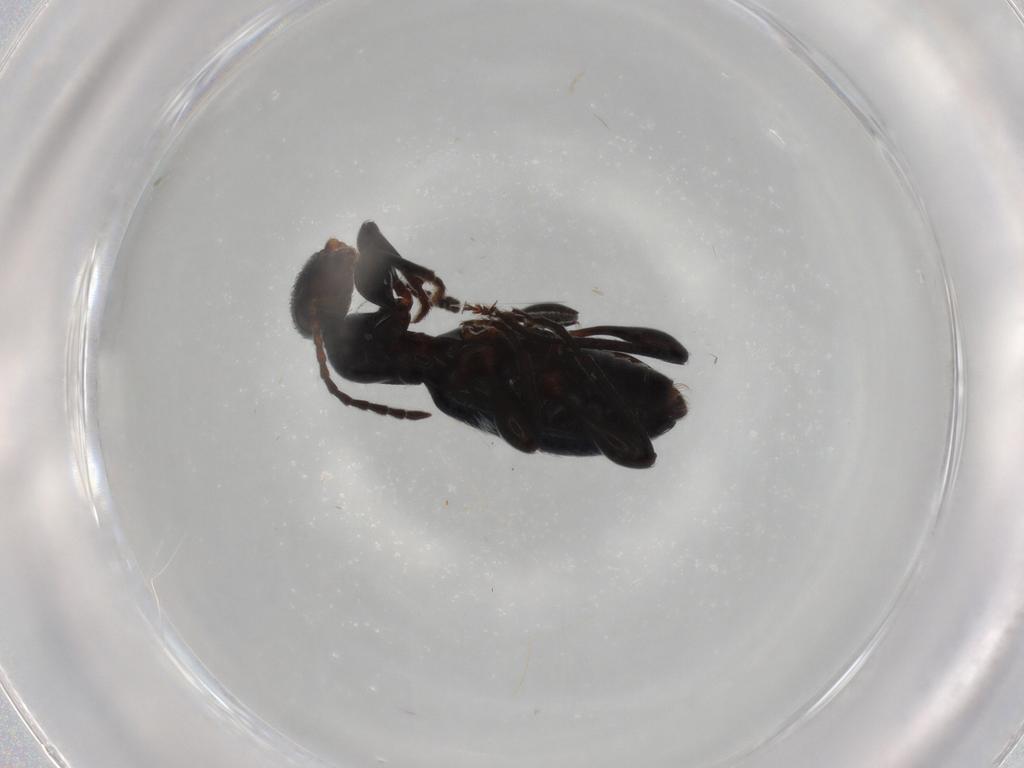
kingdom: Animalia
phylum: Arthropoda
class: Insecta
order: Coleoptera
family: Anthicidae
